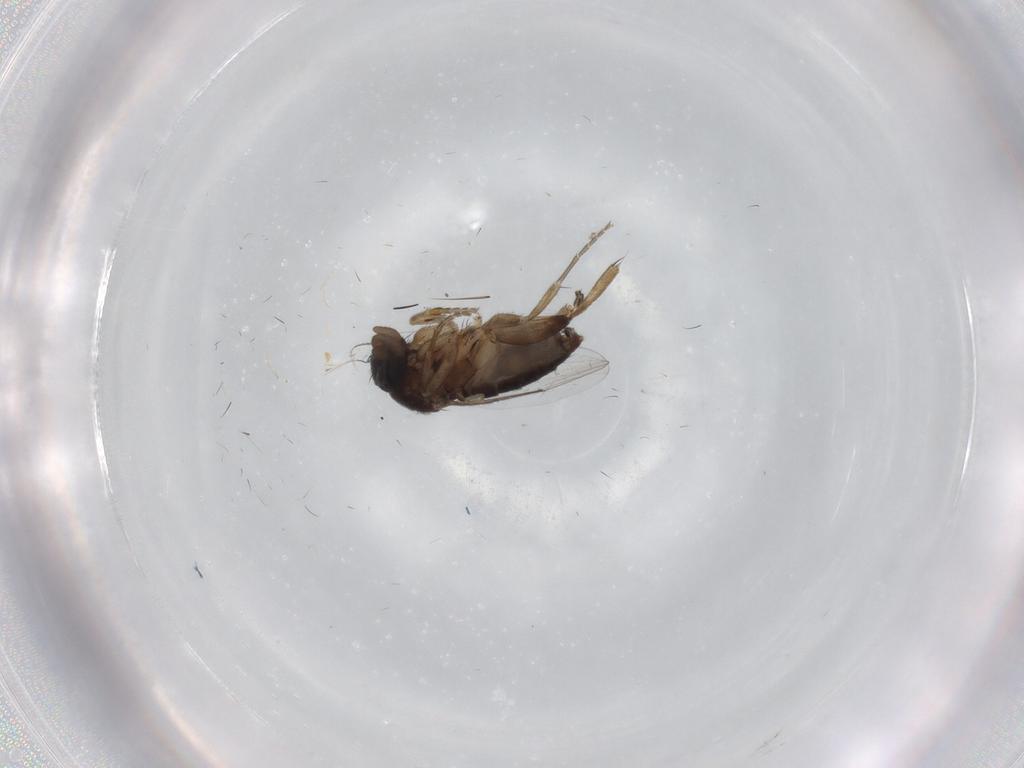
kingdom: Animalia
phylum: Arthropoda
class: Insecta
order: Diptera
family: Phoridae
